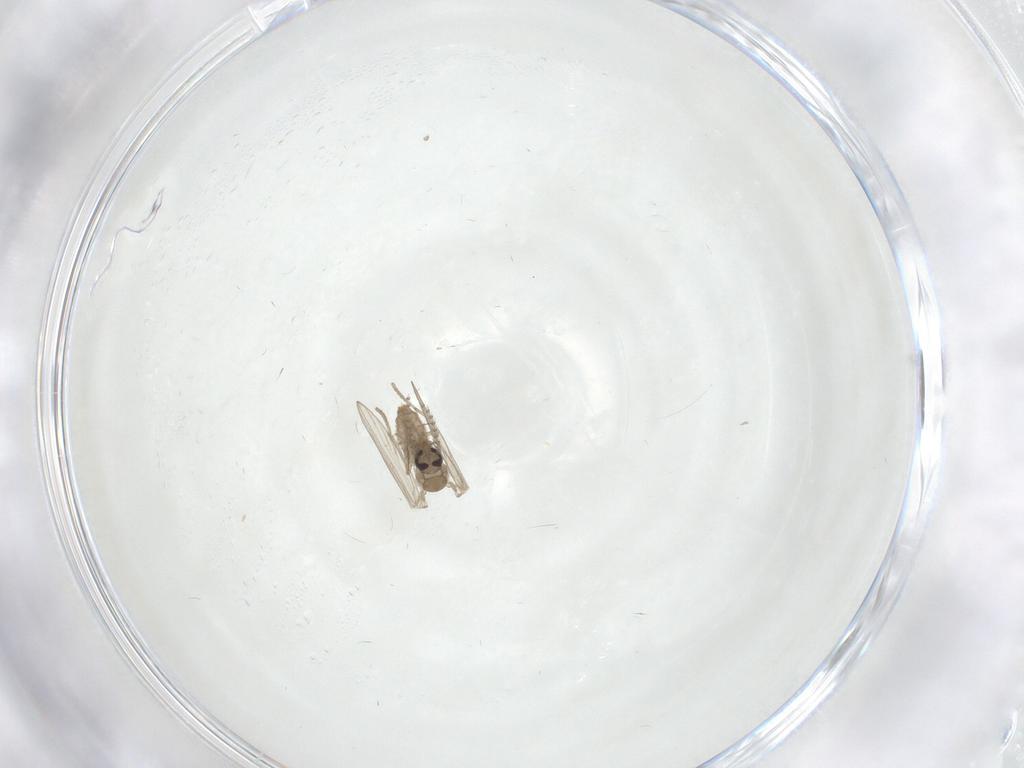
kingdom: Animalia
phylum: Arthropoda
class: Insecta
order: Diptera
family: Psychodidae
